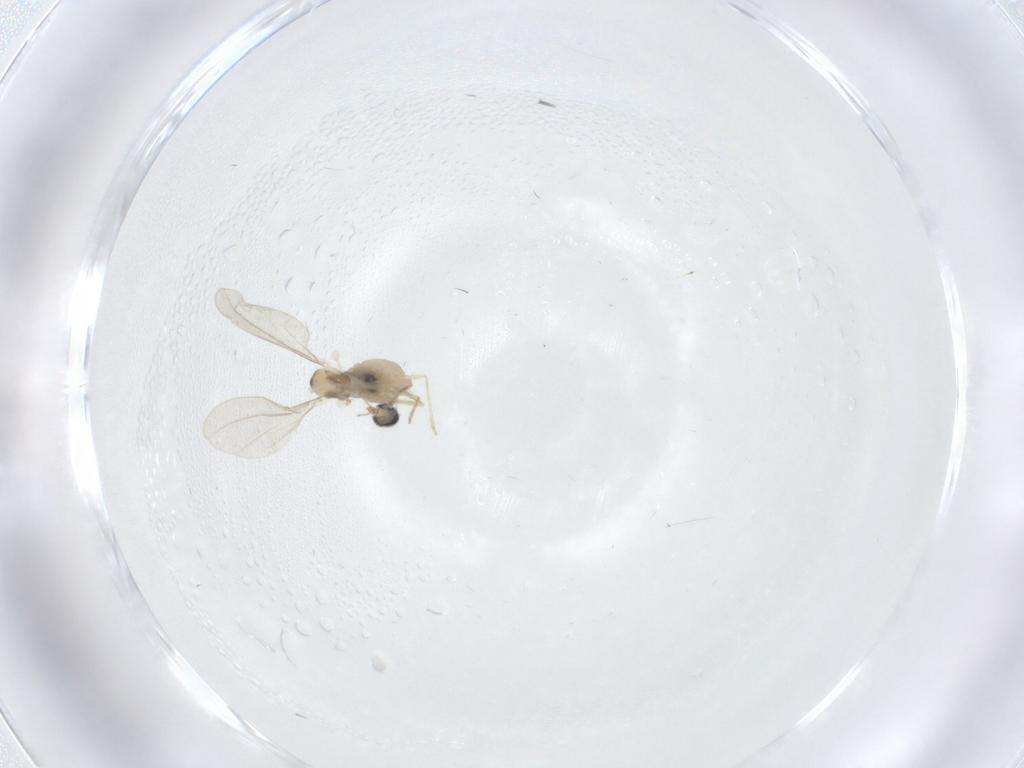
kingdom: Animalia
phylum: Arthropoda
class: Insecta
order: Diptera
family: Cecidomyiidae
